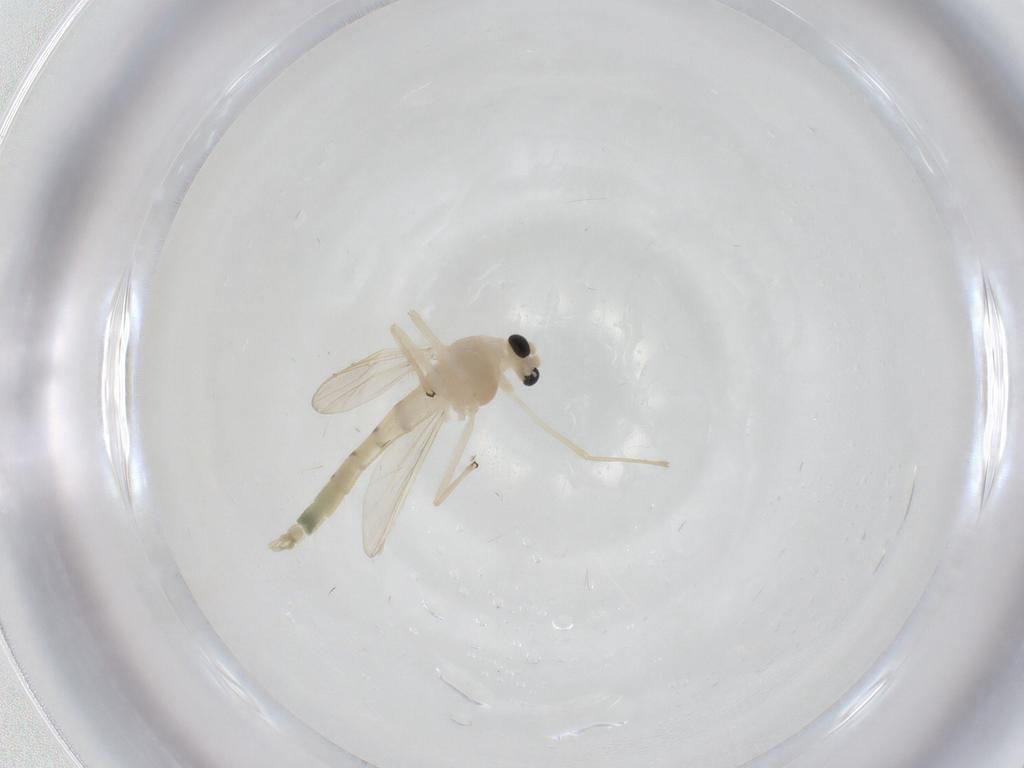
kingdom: Animalia
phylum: Arthropoda
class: Insecta
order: Diptera
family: Chironomidae
